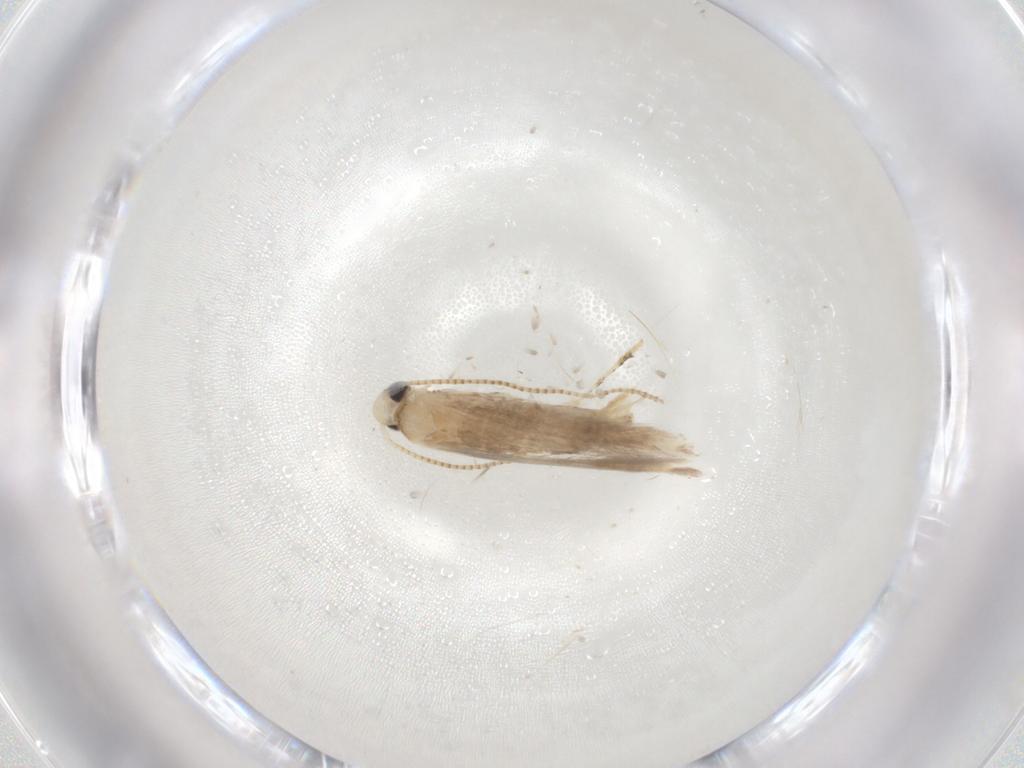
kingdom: Animalia
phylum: Arthropoda
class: Insecta
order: Lepidoptera
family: Gracillariidae
